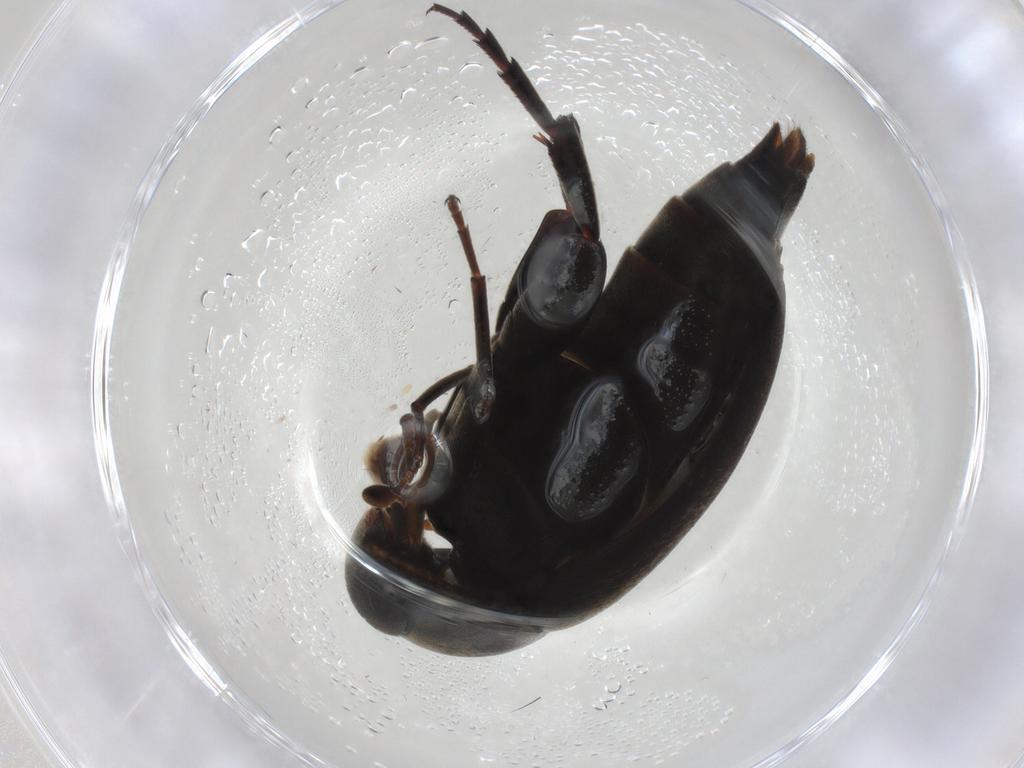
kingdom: Animalia
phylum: Arthropoda
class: Insecta
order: Coleoptera
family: Mordellidae
